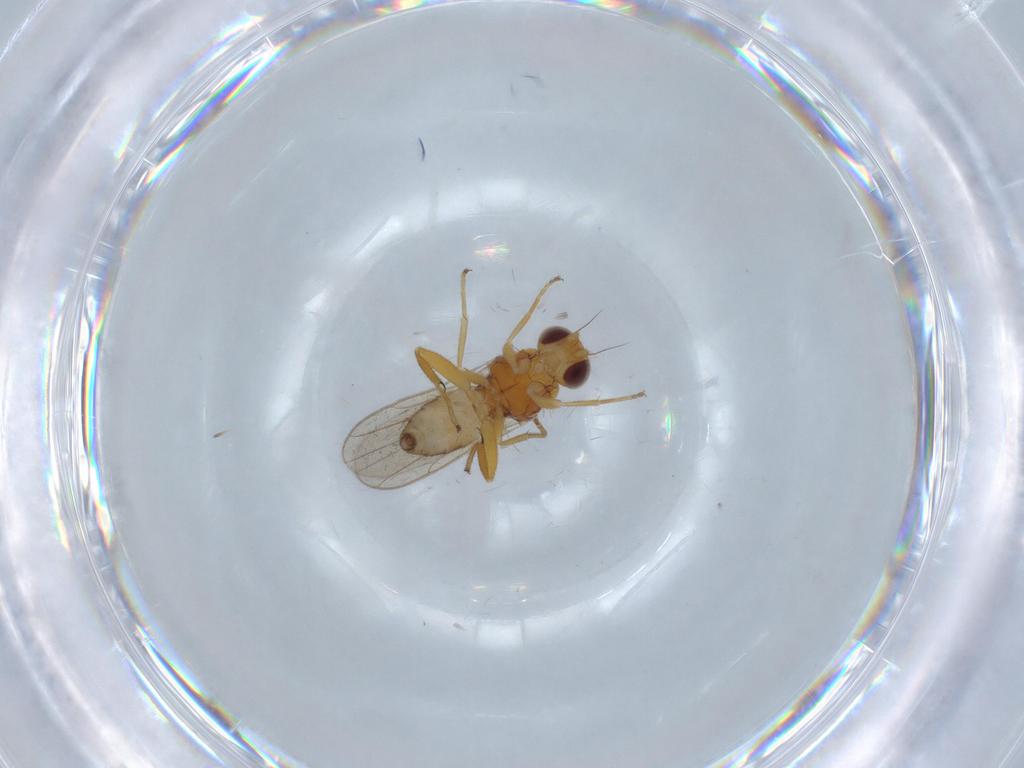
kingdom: Animalia
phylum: Arthropoda
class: Insecta
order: Diptera
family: Chloropidae
